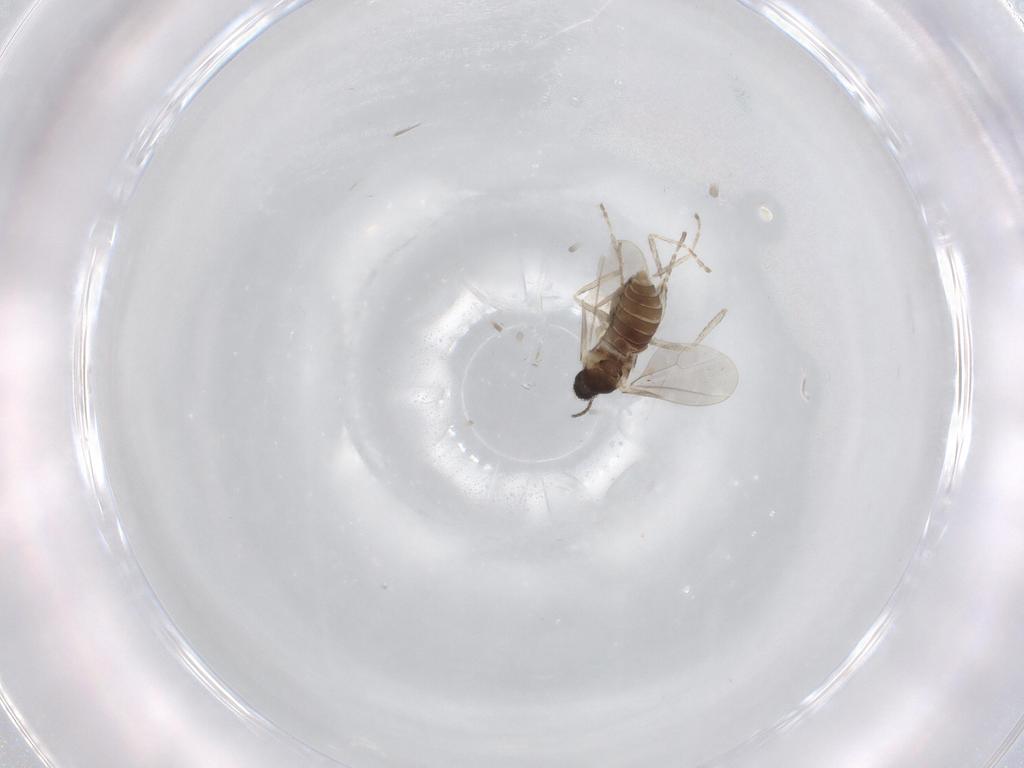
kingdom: Animalia
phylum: Arthropoda
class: Insecta
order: Diptera
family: Cecidomyiidae
